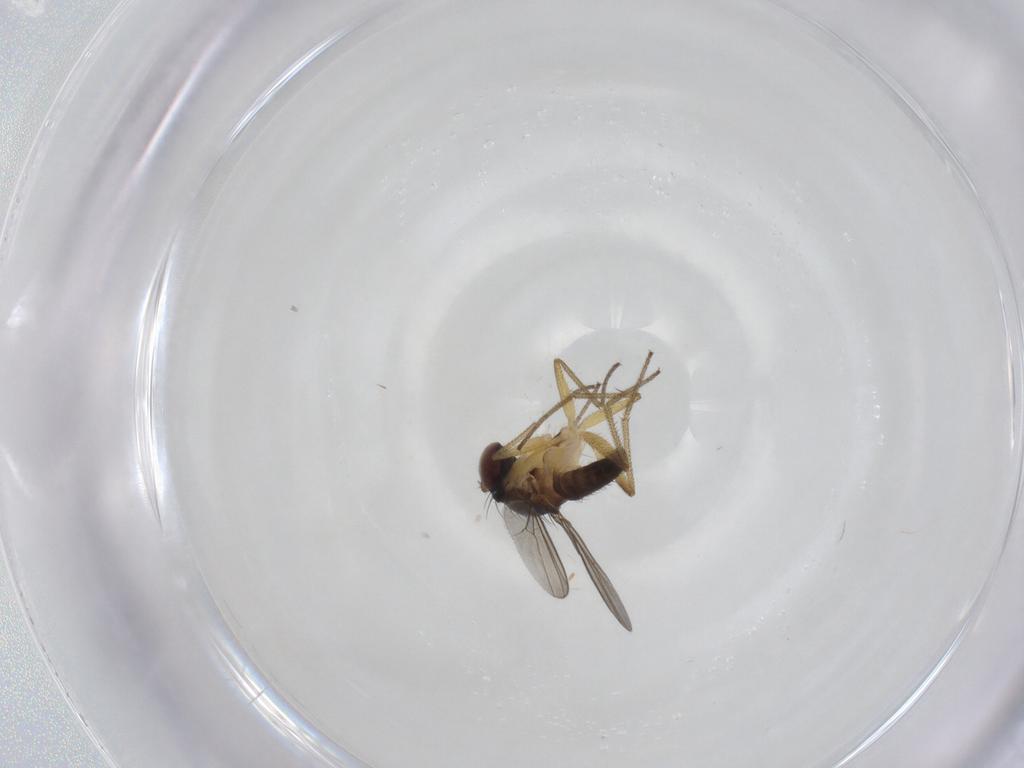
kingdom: Animalia
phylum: Arthropoda
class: Insecta
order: Diptera
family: Dolichopodidae
